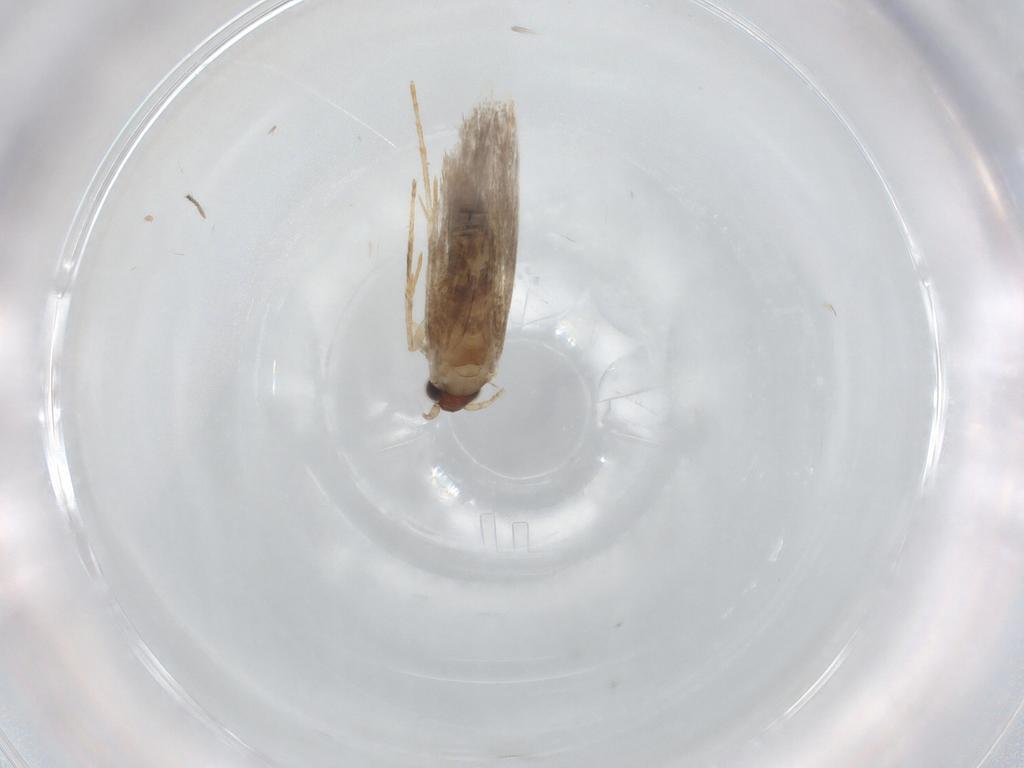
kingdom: Animalia
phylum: Arthropoda
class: Insecta
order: Lepidoptera
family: Tineidae
